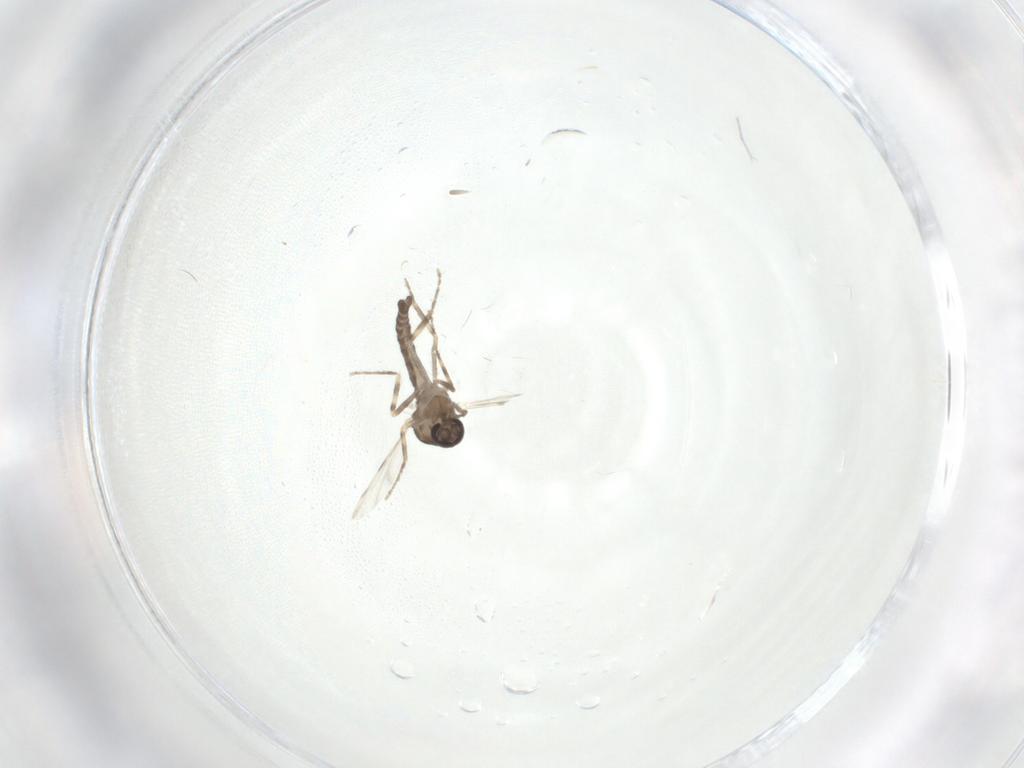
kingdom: Animalia
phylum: Arthropoda
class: Insecta
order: Diptera
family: Ceratopogonidae
